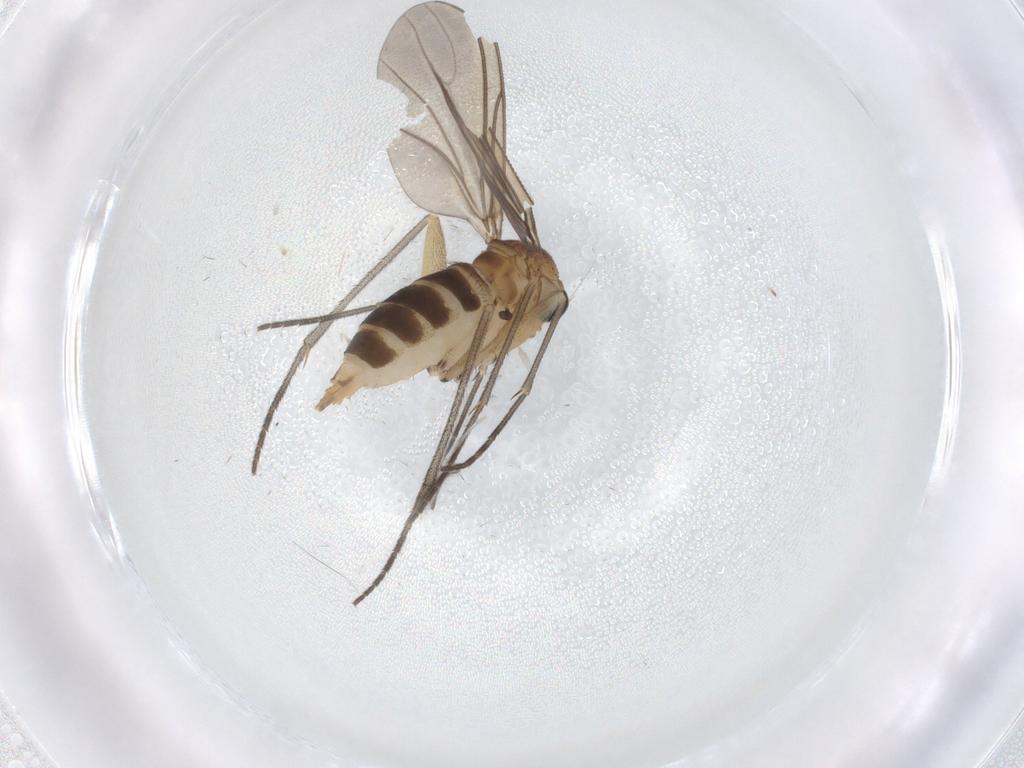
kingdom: Animalia
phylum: Arthropoda
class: Insecta
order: Diptera
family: Sciaridae
